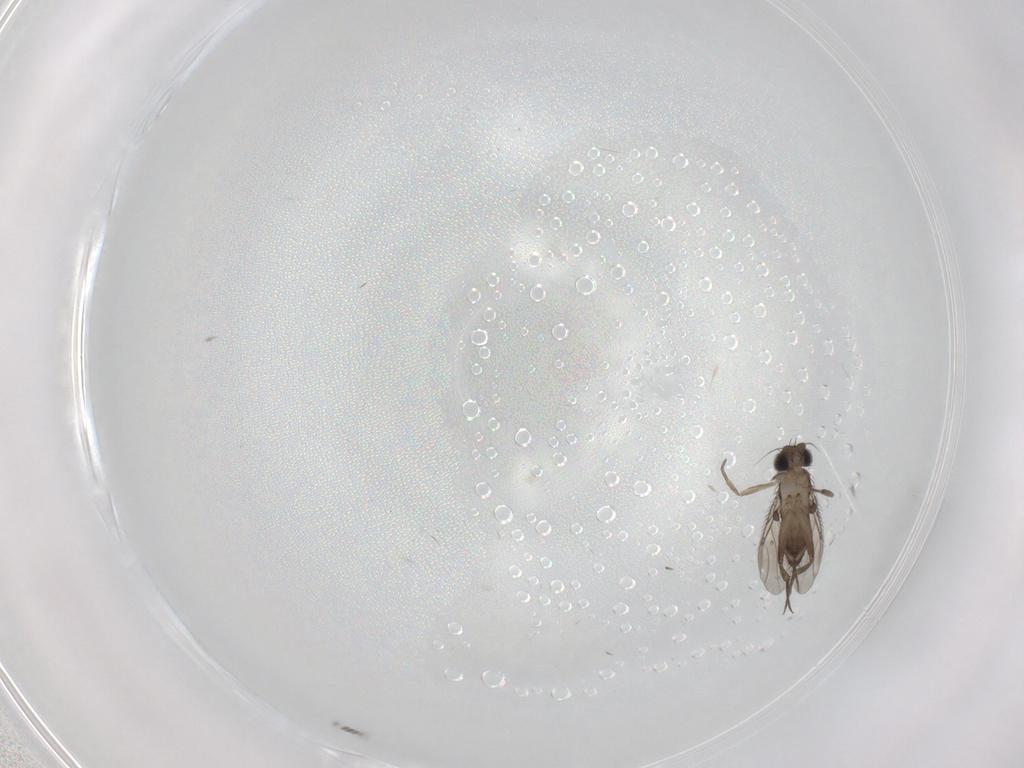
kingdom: Animalia
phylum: Arthropoda
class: Insecta
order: Diptera
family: Phoridae
